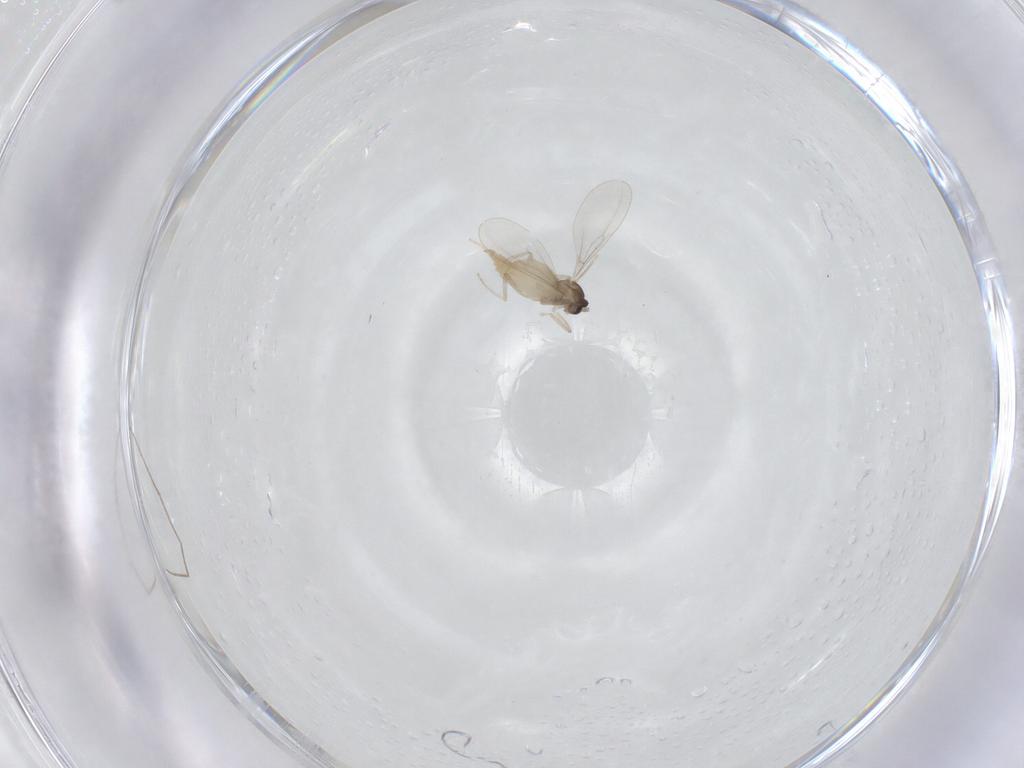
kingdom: Animalia
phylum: Arthropoda
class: Insecta
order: Diptera
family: Cecidomyiidae
